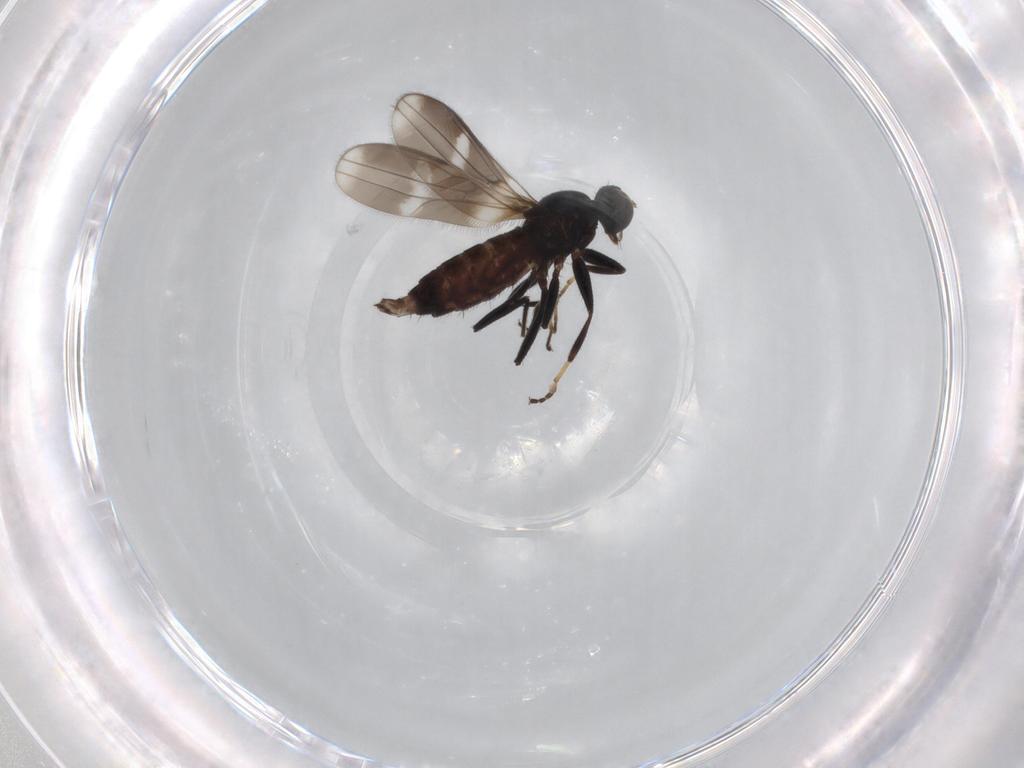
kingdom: Animalia
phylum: Arthropoda
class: Insecta
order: Diptera
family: Hybotidae
